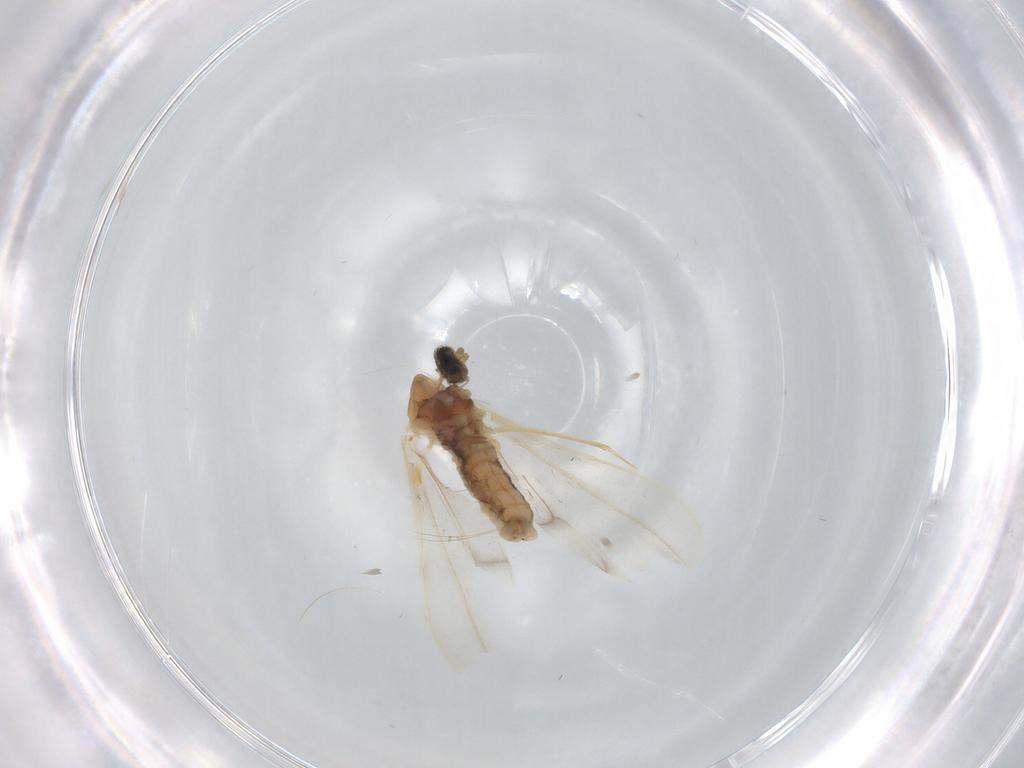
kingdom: Animalia
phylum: Arthropoda
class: Insecta
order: Diptera
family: Cecidomyiidae
